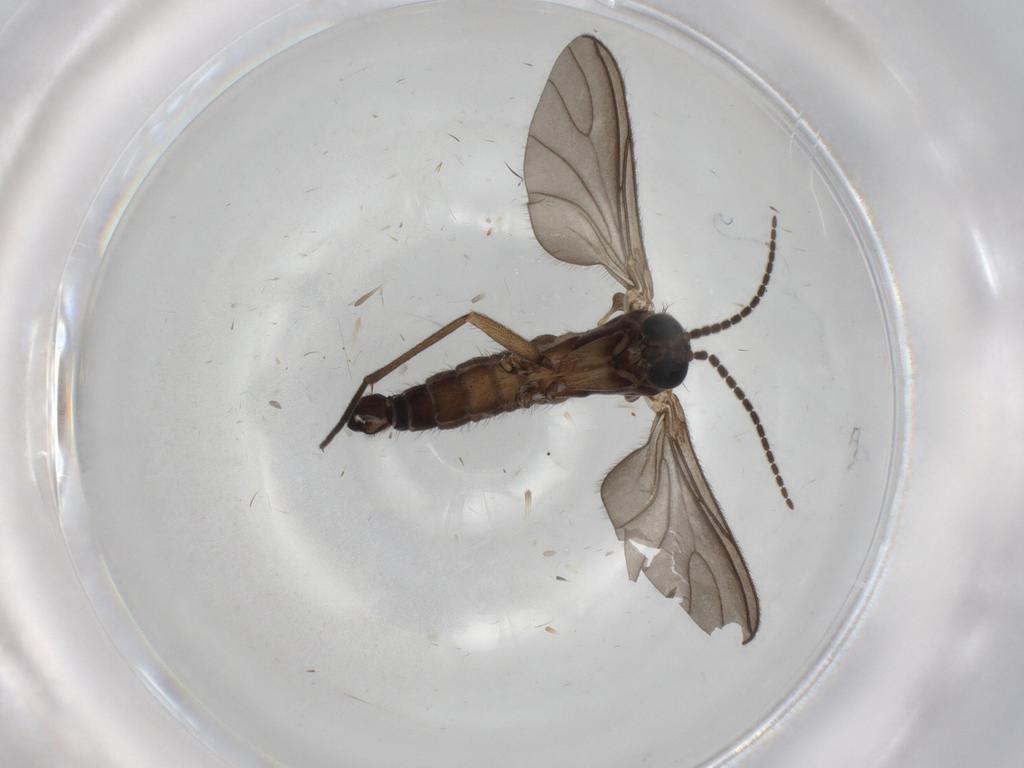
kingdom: Animalia
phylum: Arthropoda
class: Insecta
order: Diptera
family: Sciaridae
